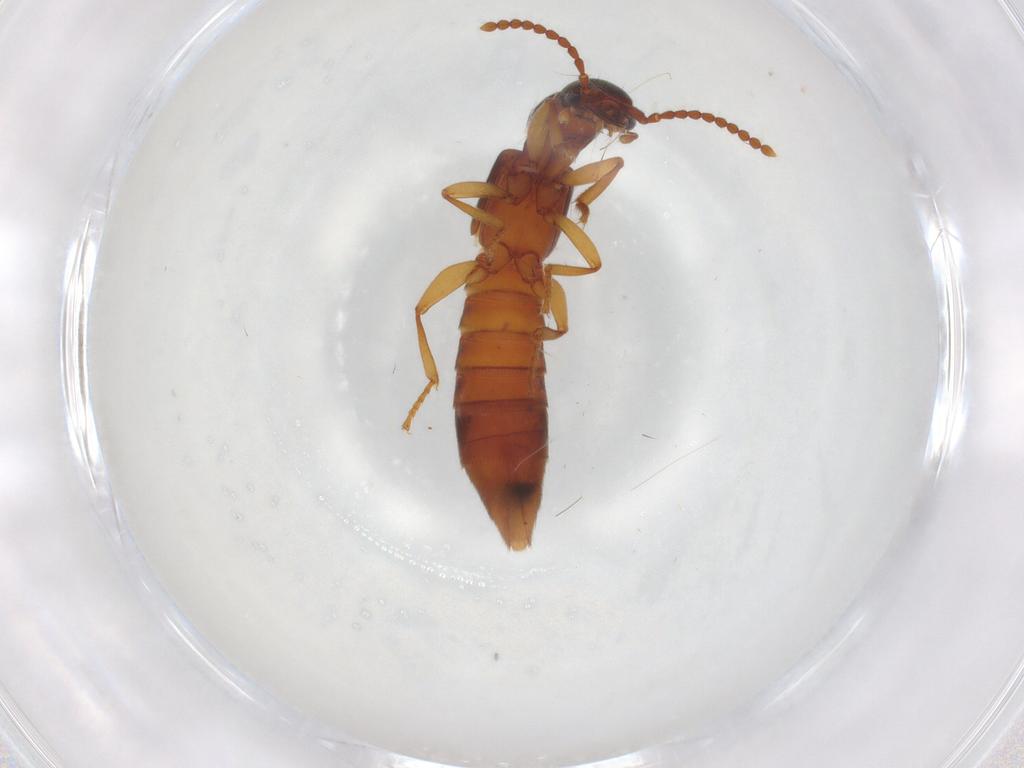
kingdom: Animalia
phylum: Arthropoda
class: Insecta
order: Coleoptera
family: Staphylinidae
